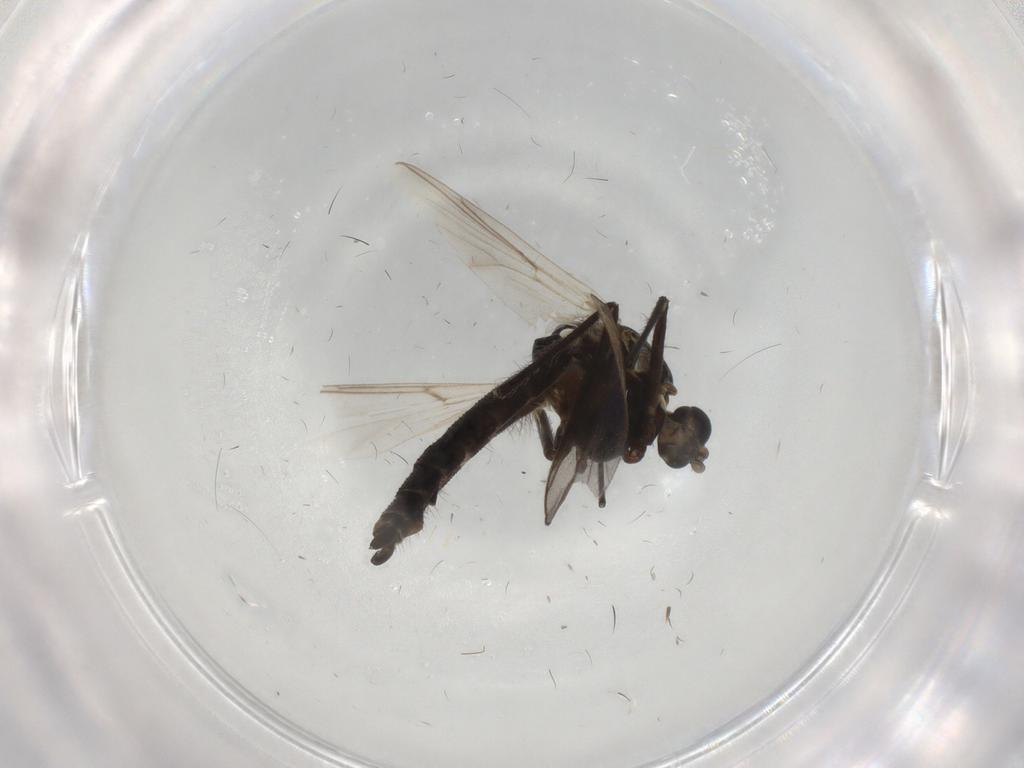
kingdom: Animalia
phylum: Arthropoda
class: Insecta
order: Diptera
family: Chironomidae
